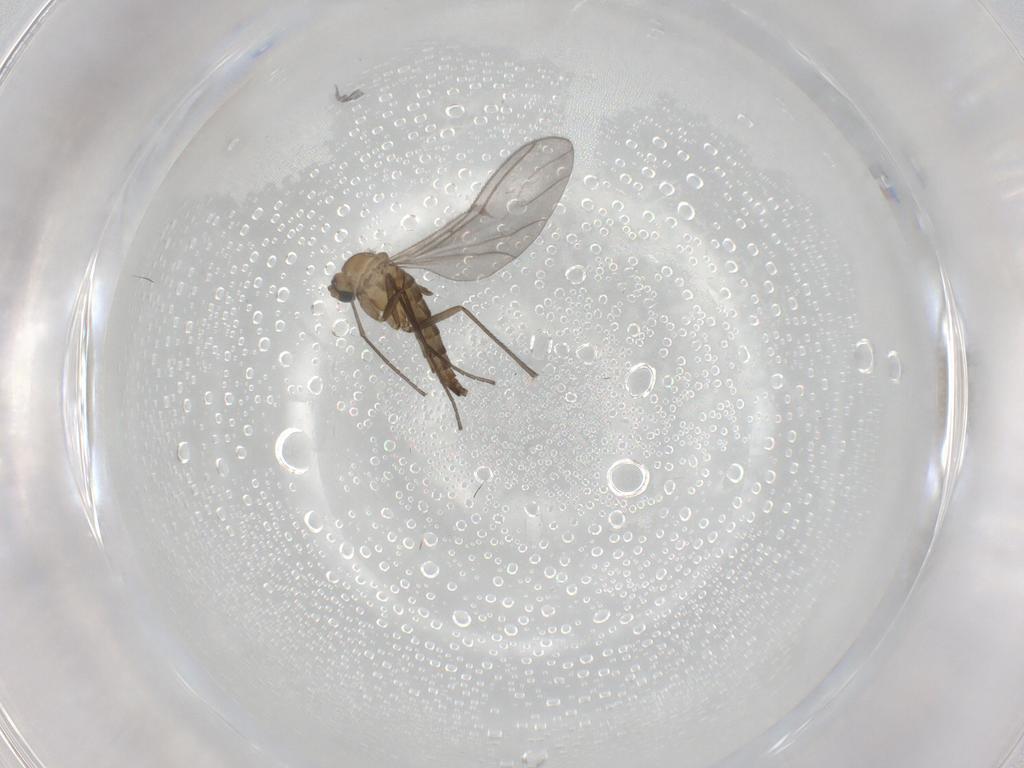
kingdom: Animalia
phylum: Arthropoda
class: Insecta
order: Diptera
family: Sciaridae
